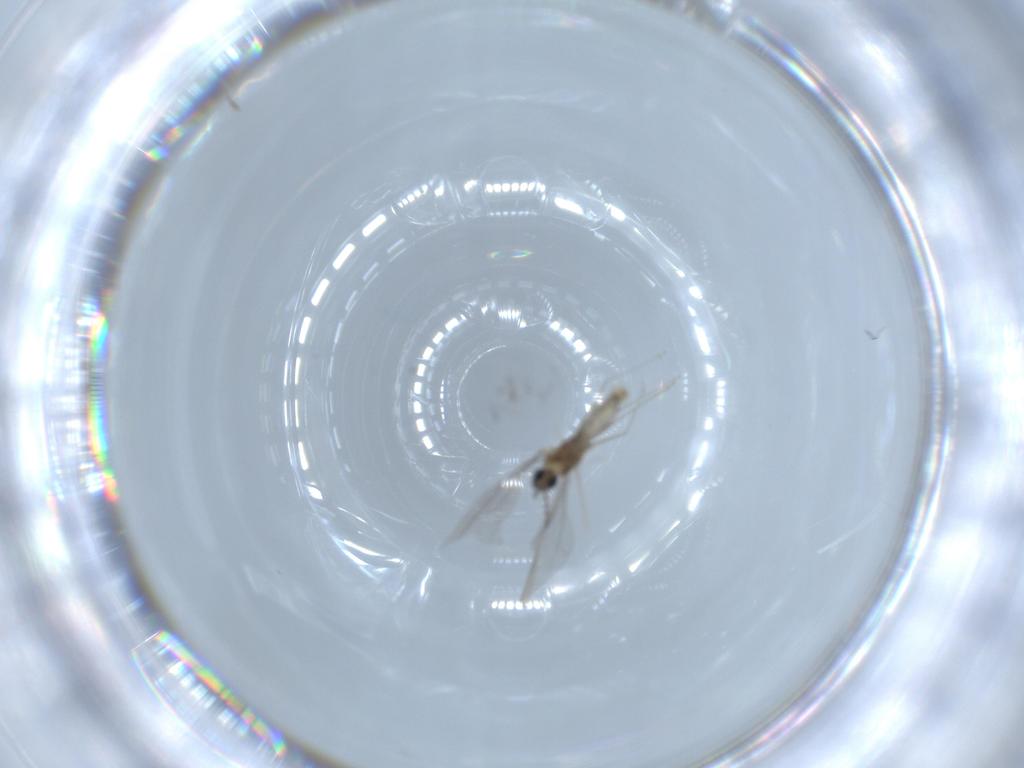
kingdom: Animalia
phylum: Arthropoda
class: Insecta
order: Diptera
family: Cecidomyiidae
